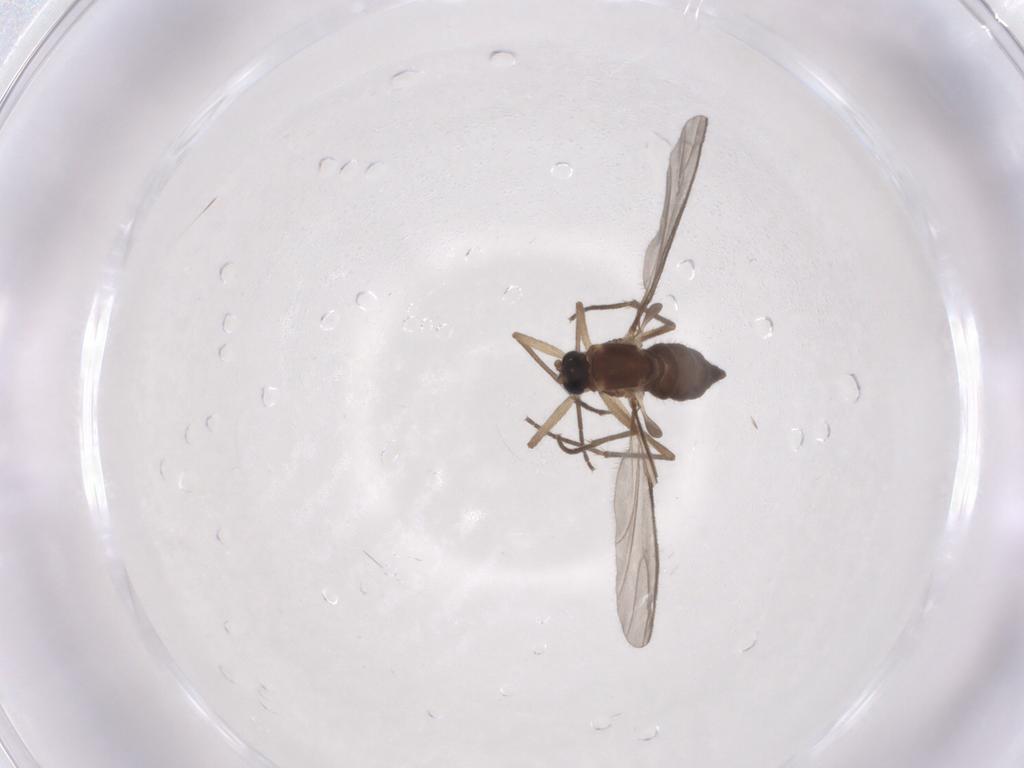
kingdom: Animalia
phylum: Arthropoda
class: Insecta
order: Diptera
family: Sciaridae
